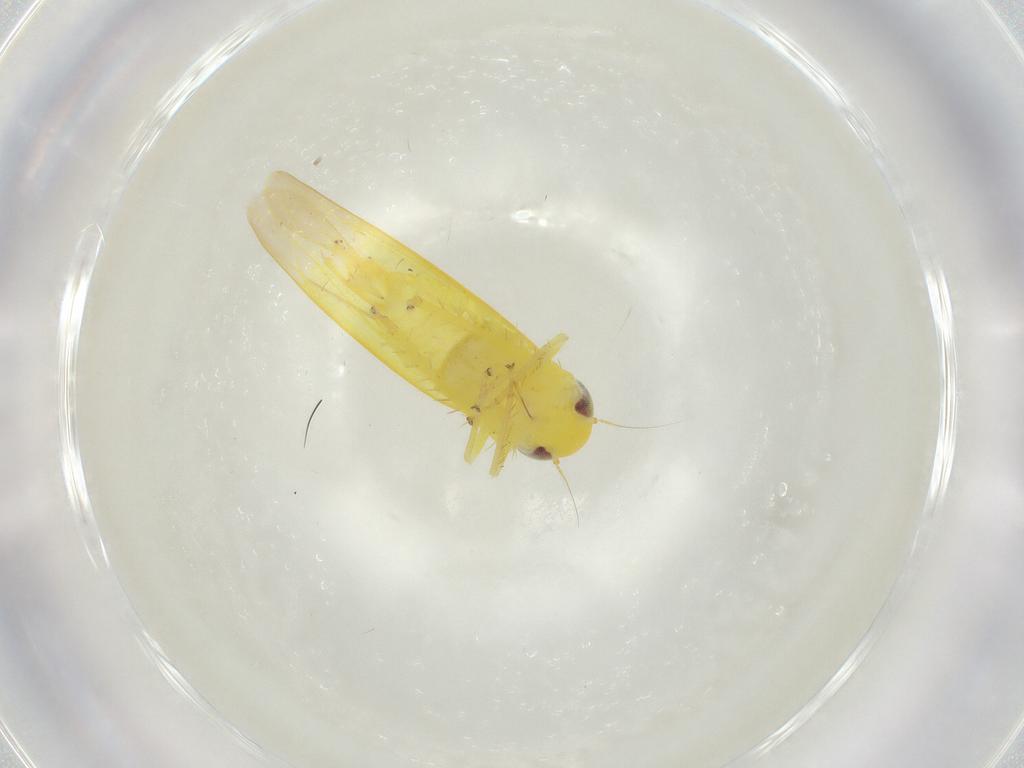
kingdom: Animalia
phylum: Arthropoda
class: Insecta
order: Hemiptera
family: Cicadellidae
